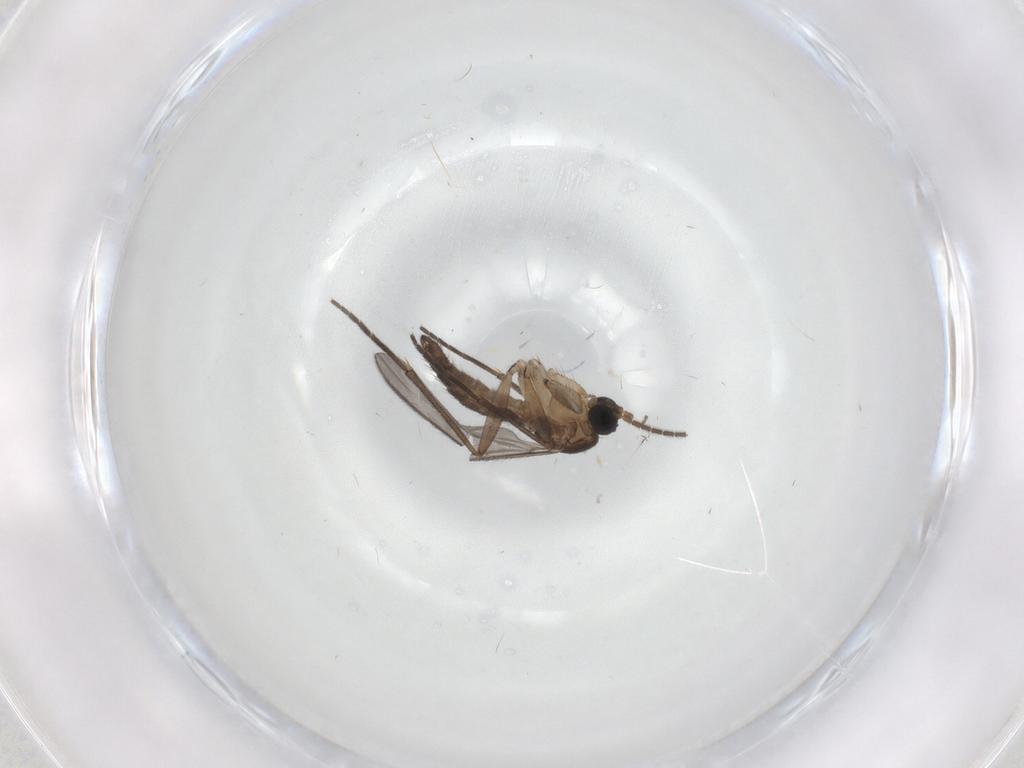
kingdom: Animalia
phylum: Arthropoda
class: Insecta
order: Diptera
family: Sciaridae
